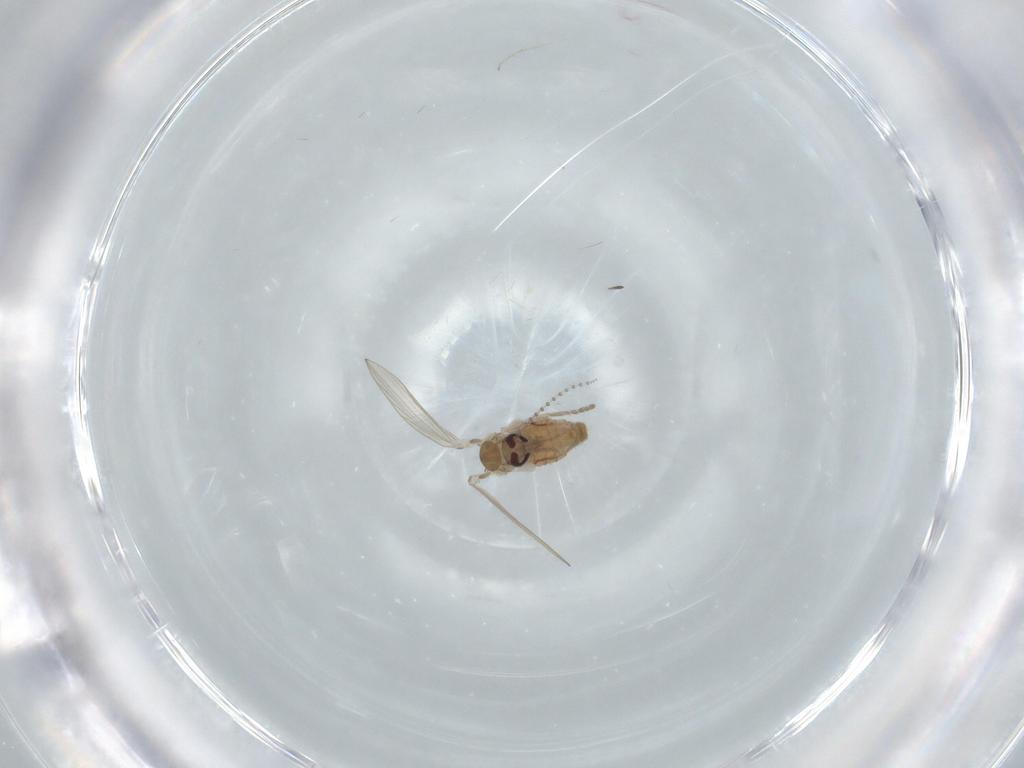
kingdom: Animalia
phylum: Arthropoda
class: Insecta
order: Diptera
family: Psychodidae
